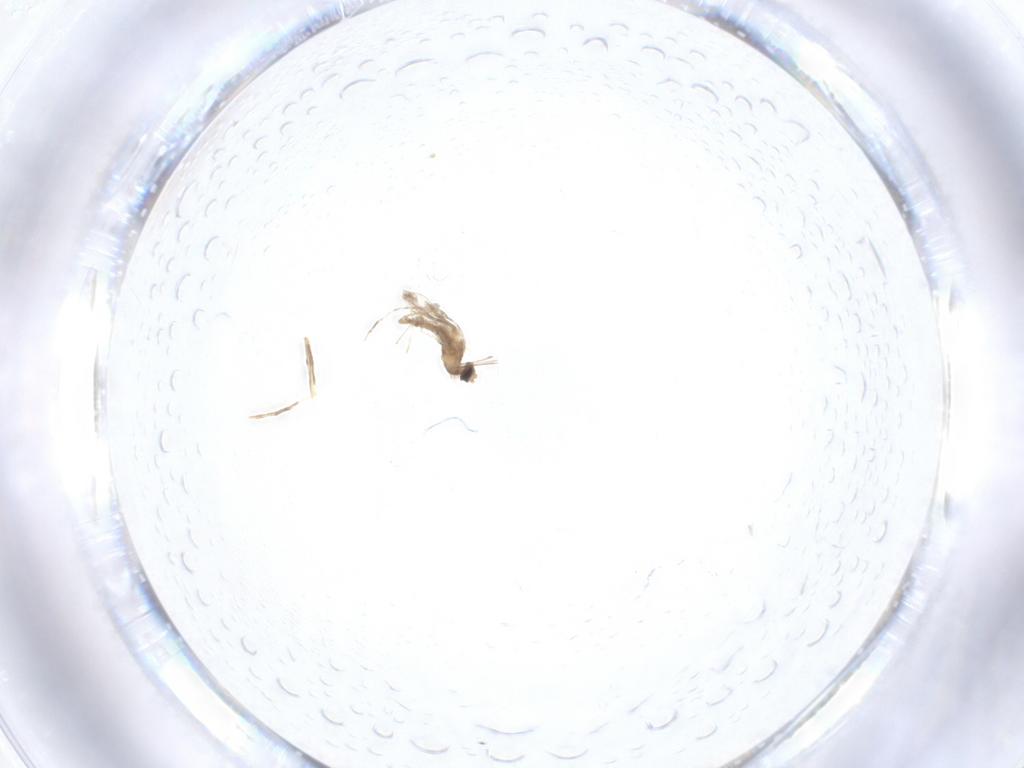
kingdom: Animalia
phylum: Arthropoda
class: Insecta
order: Diptera
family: Psychodidae
